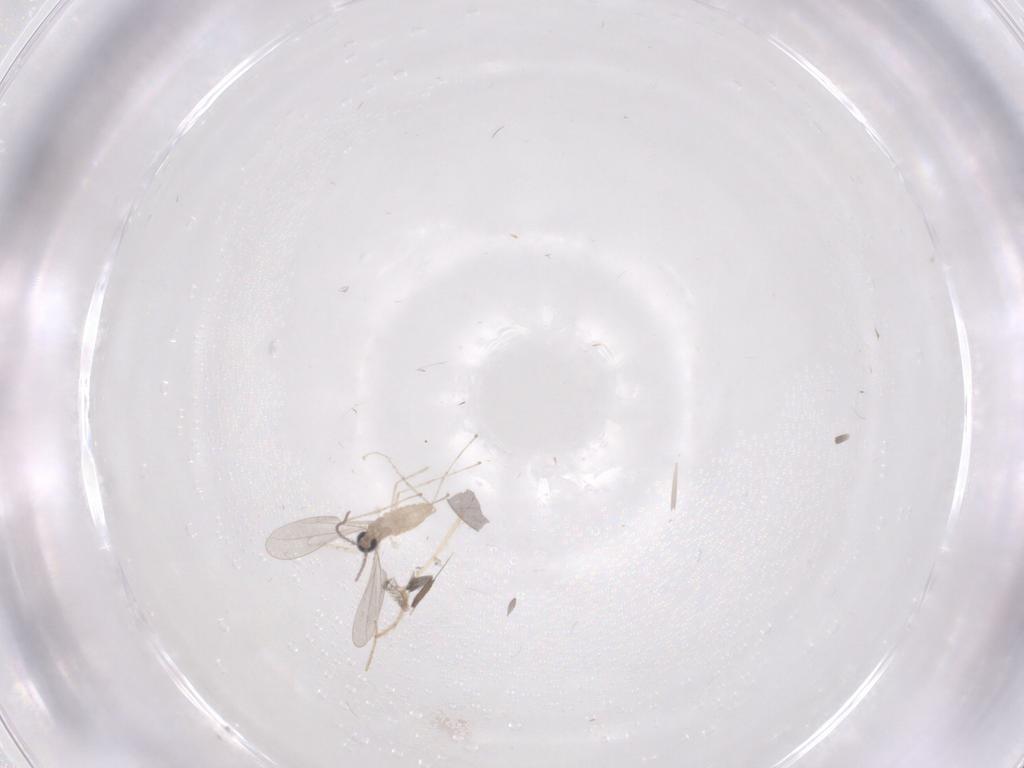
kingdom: Animalia
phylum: Arthropoda
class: Insecta
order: Diptera
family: Cecidomyiidae
